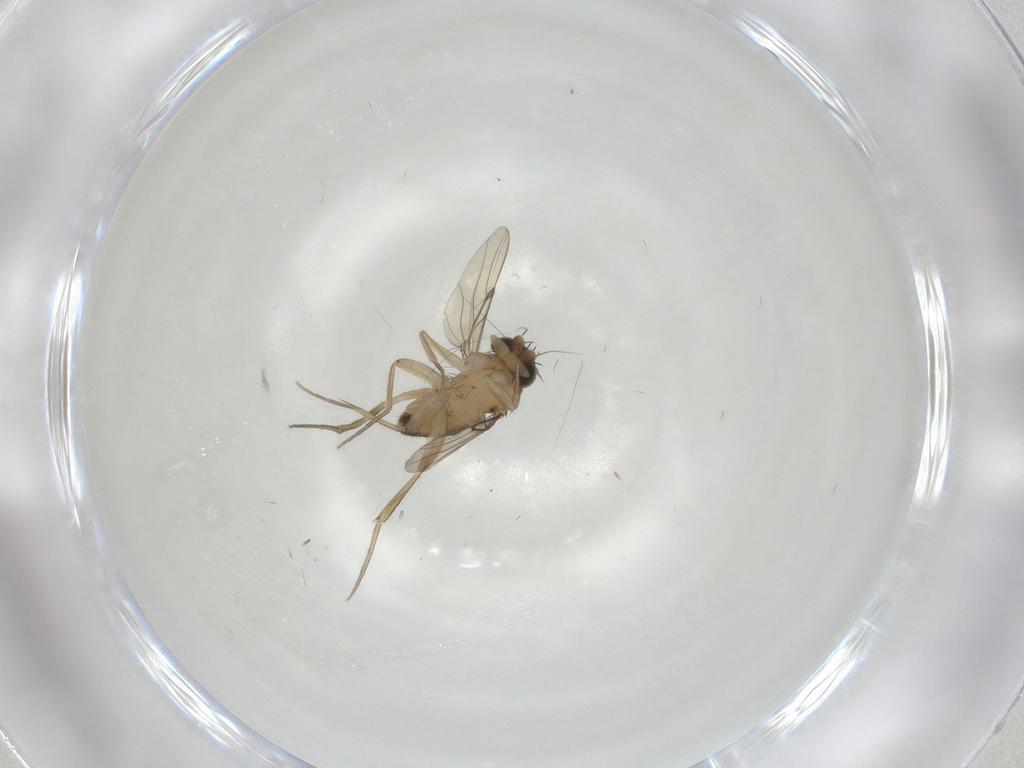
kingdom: Animalia
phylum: Arthropoda
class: Insecta
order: Diptera
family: Phoridae
